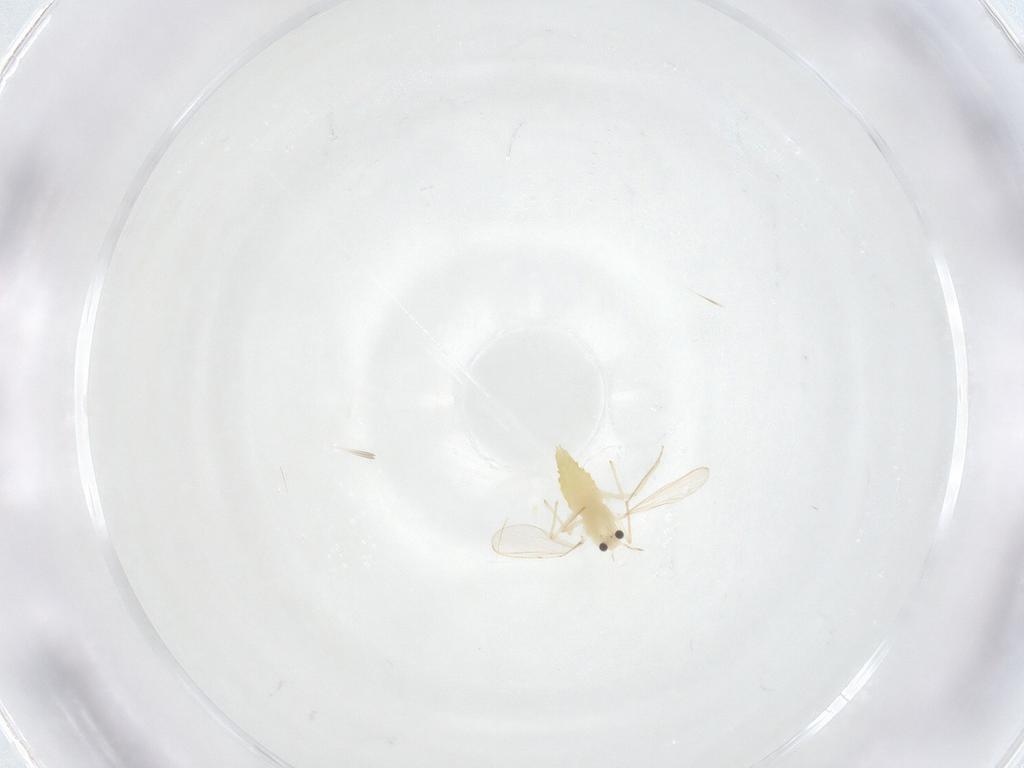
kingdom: Animalia
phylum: Arthropoda
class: Insecta
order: Diptera
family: Chironomidae
